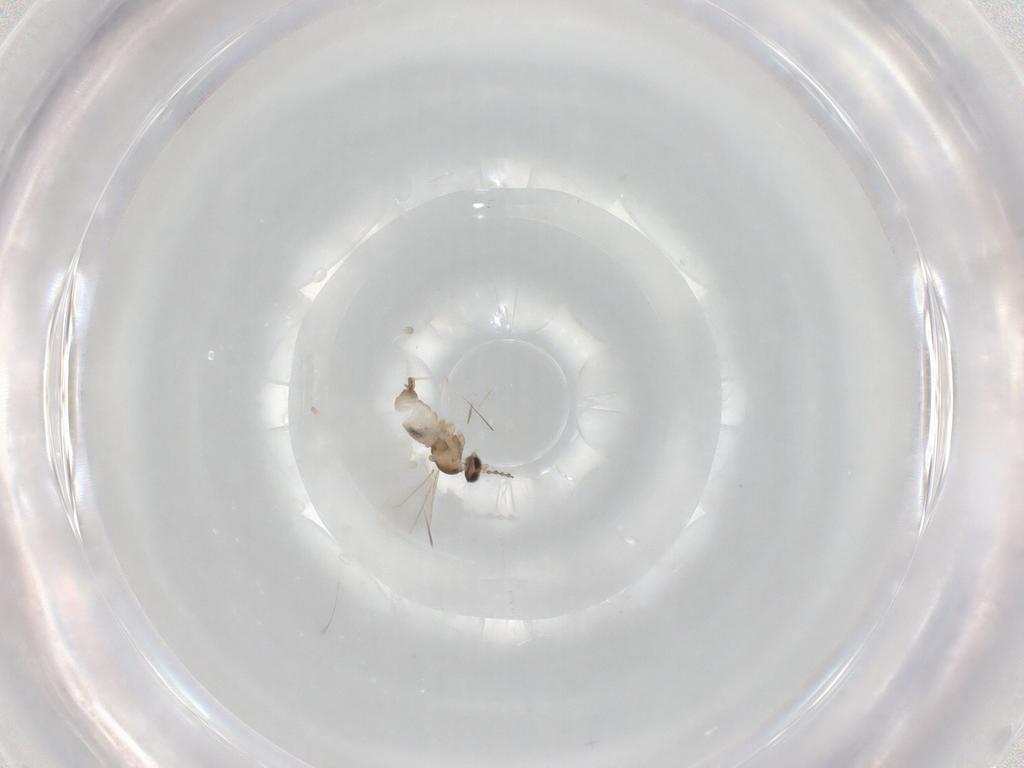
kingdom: Animalia
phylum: Arthropoda
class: Insecta
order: Diptera
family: Cecidomyiidae
